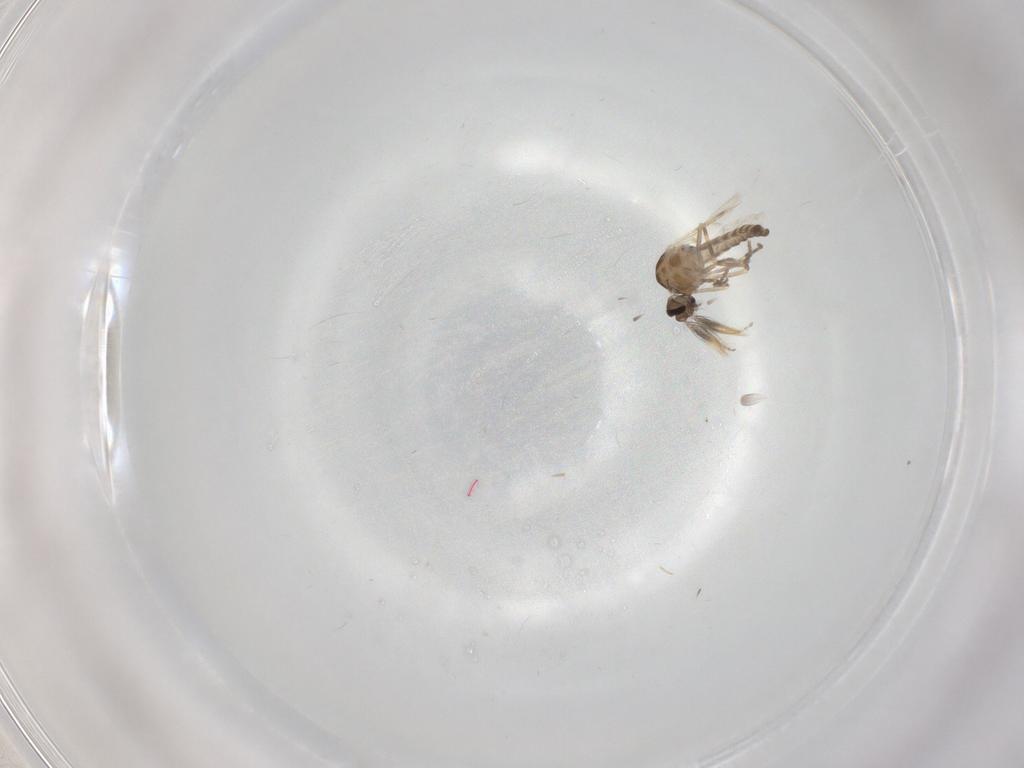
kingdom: Animalia
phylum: Arthropoda
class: Insecta
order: Diptera
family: Ceratopogonidae
